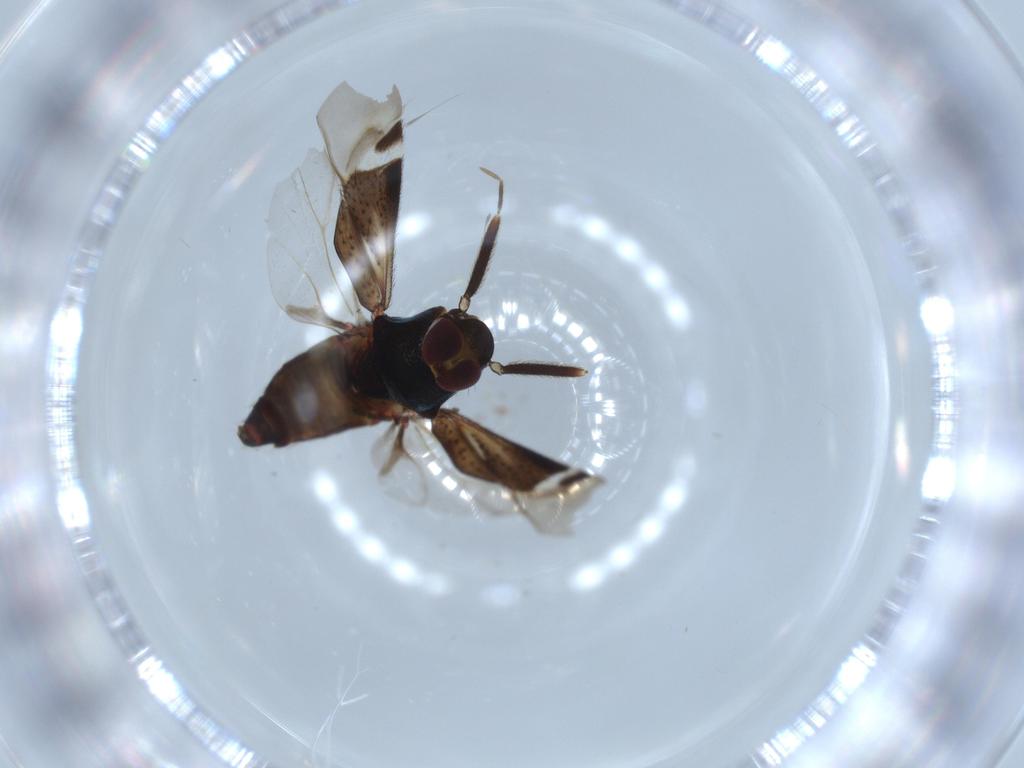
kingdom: Animalia
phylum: Arthropoda
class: Insecta
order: Hemiptera
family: Miridae
